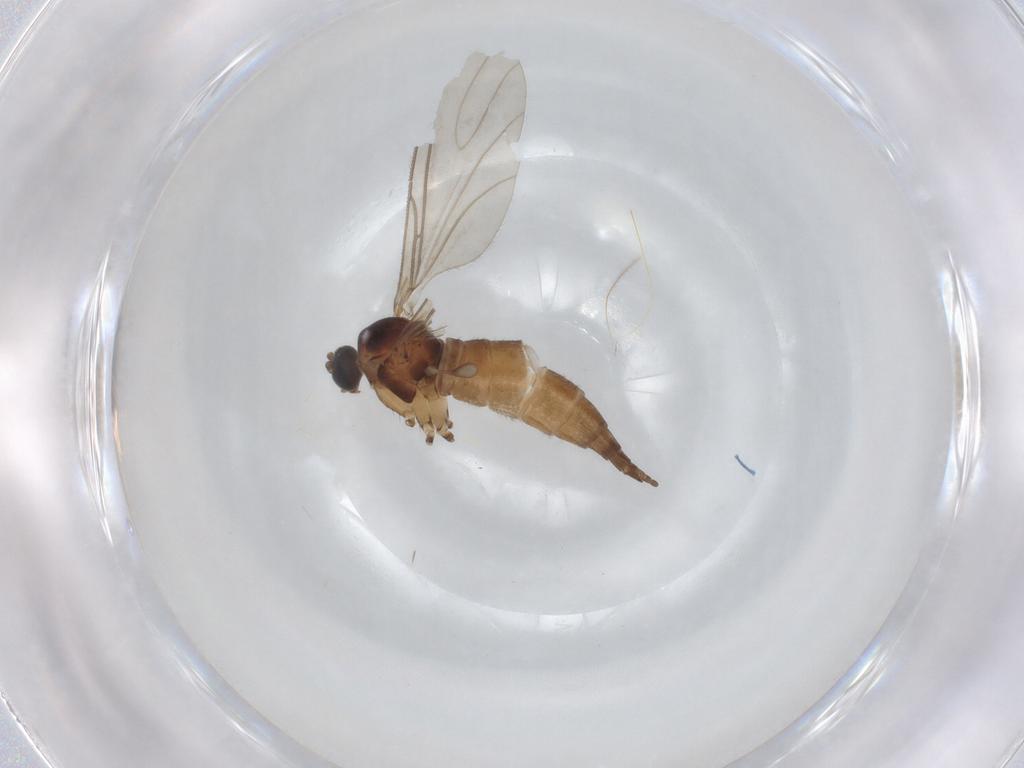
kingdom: Animalia
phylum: Arthropoda
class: Insecta
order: Diptera
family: Sciaridae
